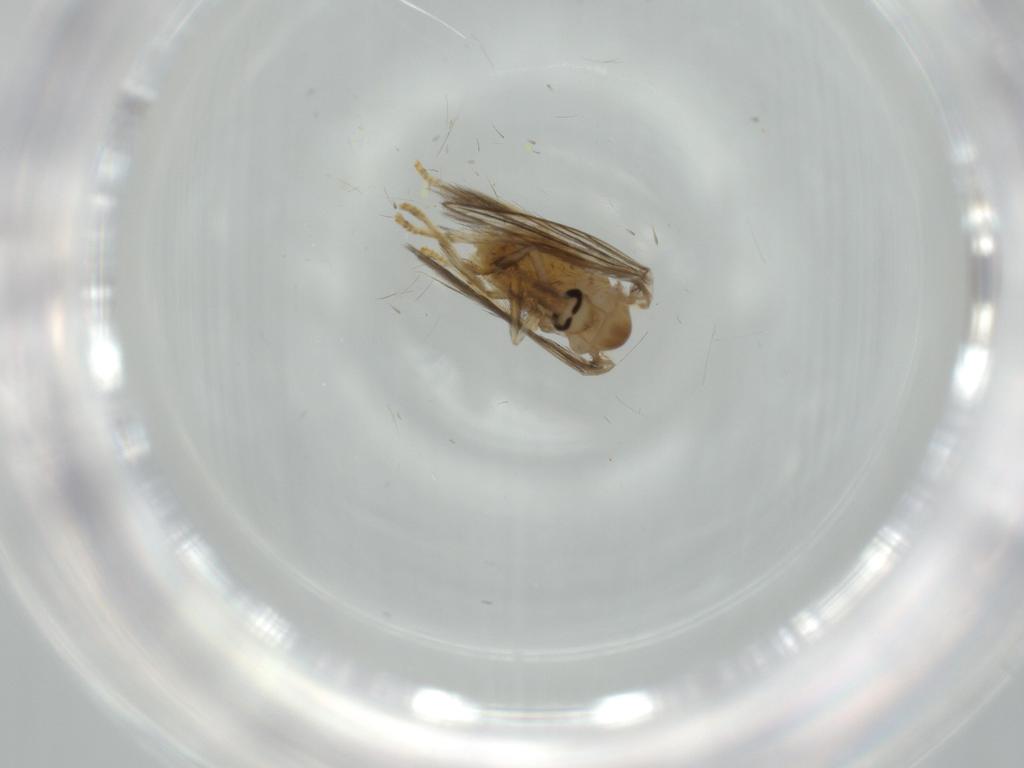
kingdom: Animalia
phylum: Arthropoda
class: Insecta
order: Diptera
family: Psychodidae
